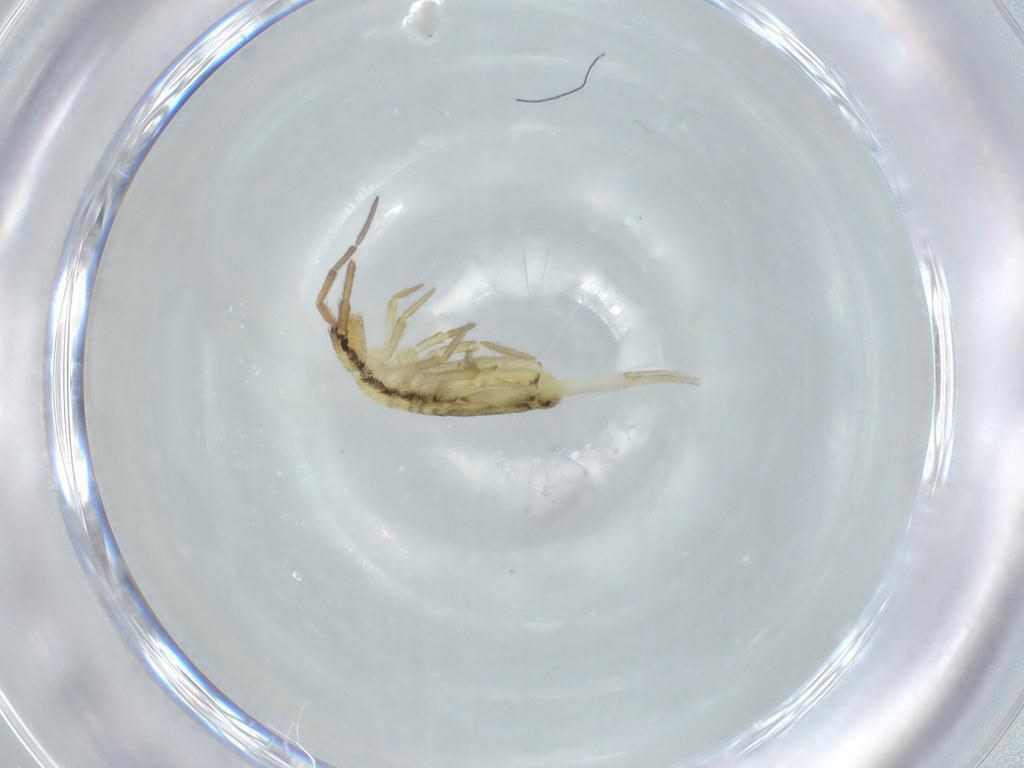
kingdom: Animalia
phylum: Arthropoda
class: Collembola
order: Entomobryomorpha
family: Entomobryidae
